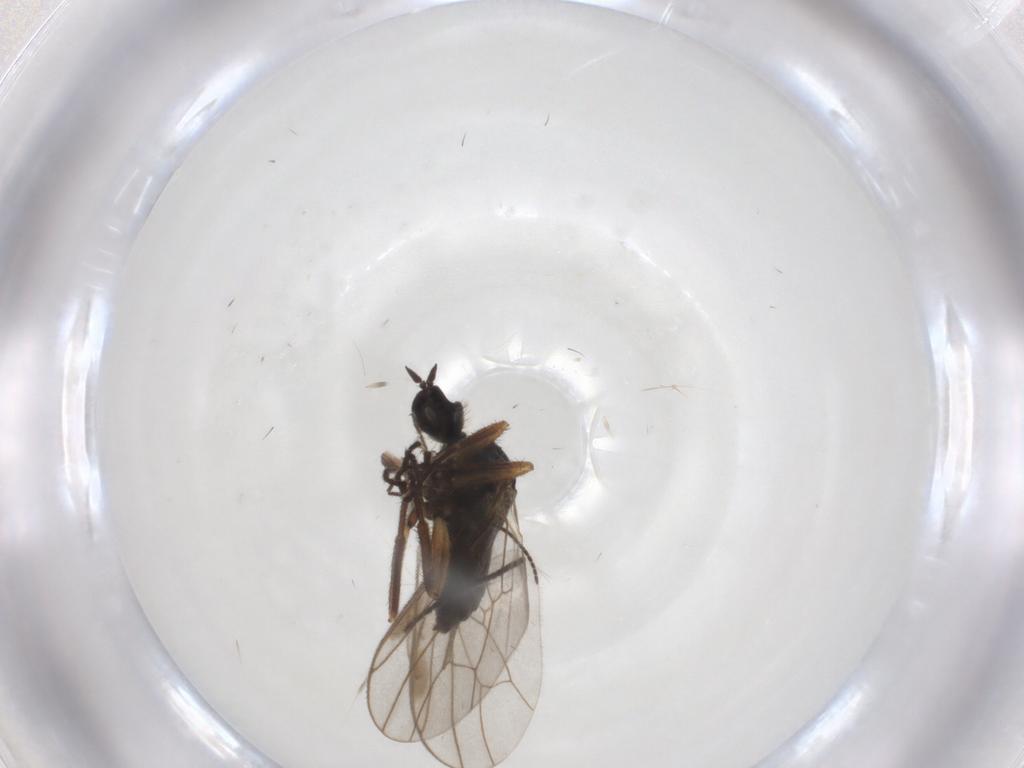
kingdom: Animalia
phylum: Arthropoda
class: Insecta
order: Diptera
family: Hybotidae
